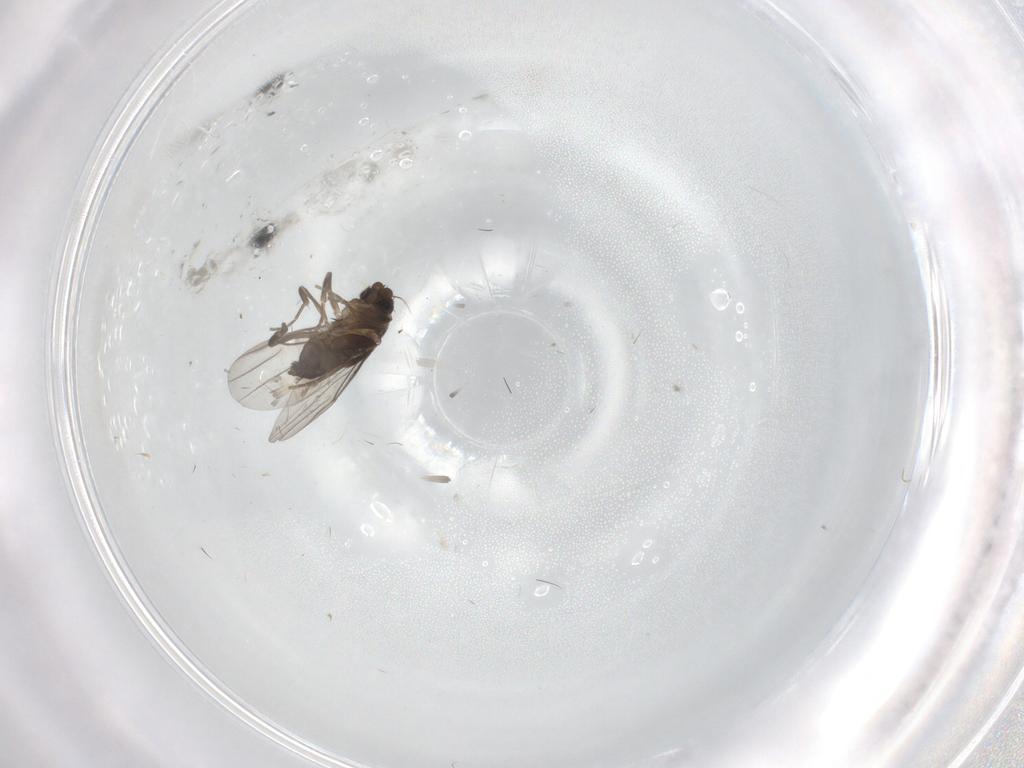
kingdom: Animalia
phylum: Arthropoda
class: Insecta
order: Diptera
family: Cecidomyiidae
